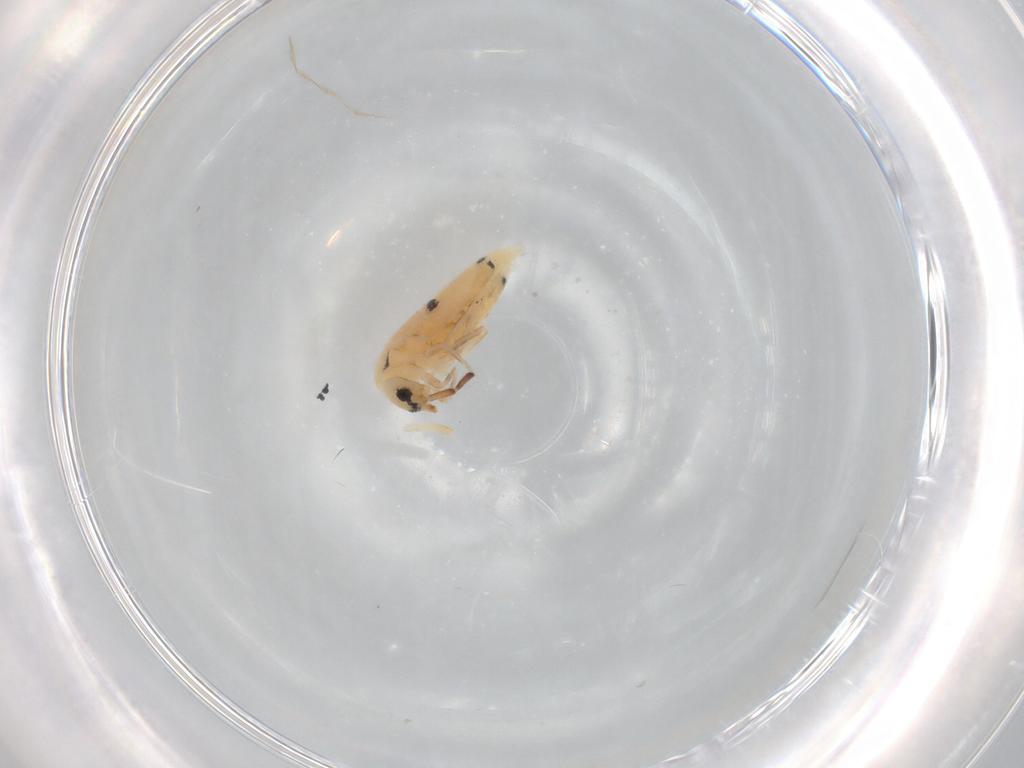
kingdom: Animalia
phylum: Arthropoda
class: Collembola
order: Entomobryomorpha
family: Entomobryidae
